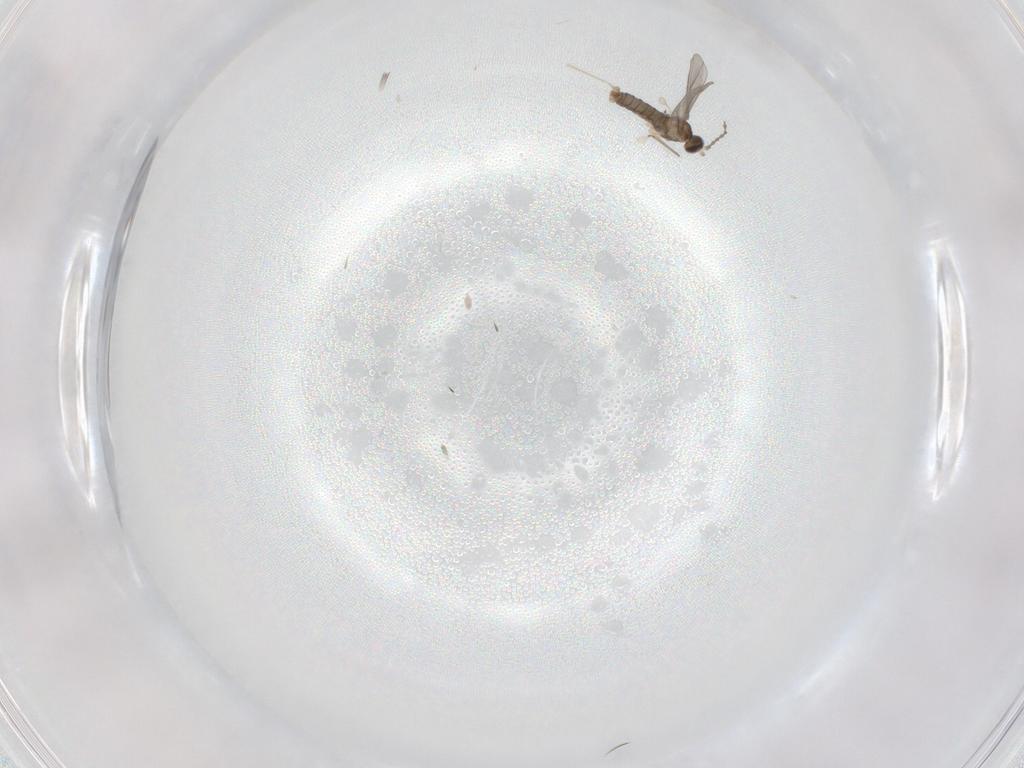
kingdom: Animalia
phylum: Arthropoda
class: Insecta
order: Diptera
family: Cecidomyiidae
